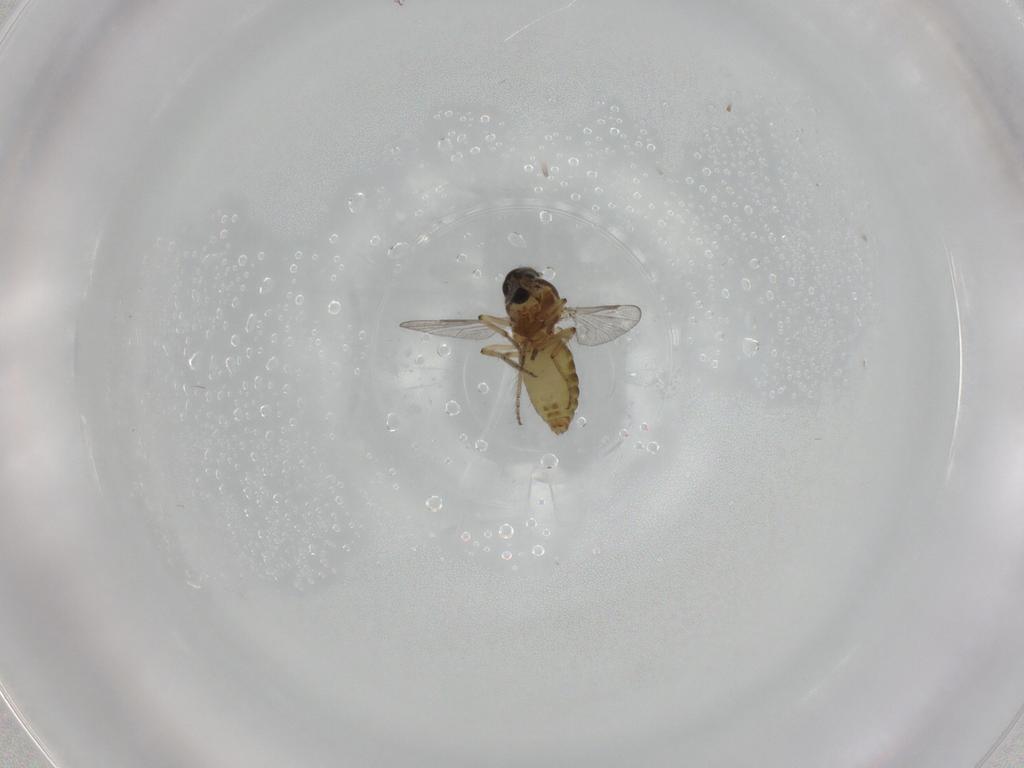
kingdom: Animalia
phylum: Arthropoda
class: Insecta
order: Diptera
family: Ceratopogonidae
